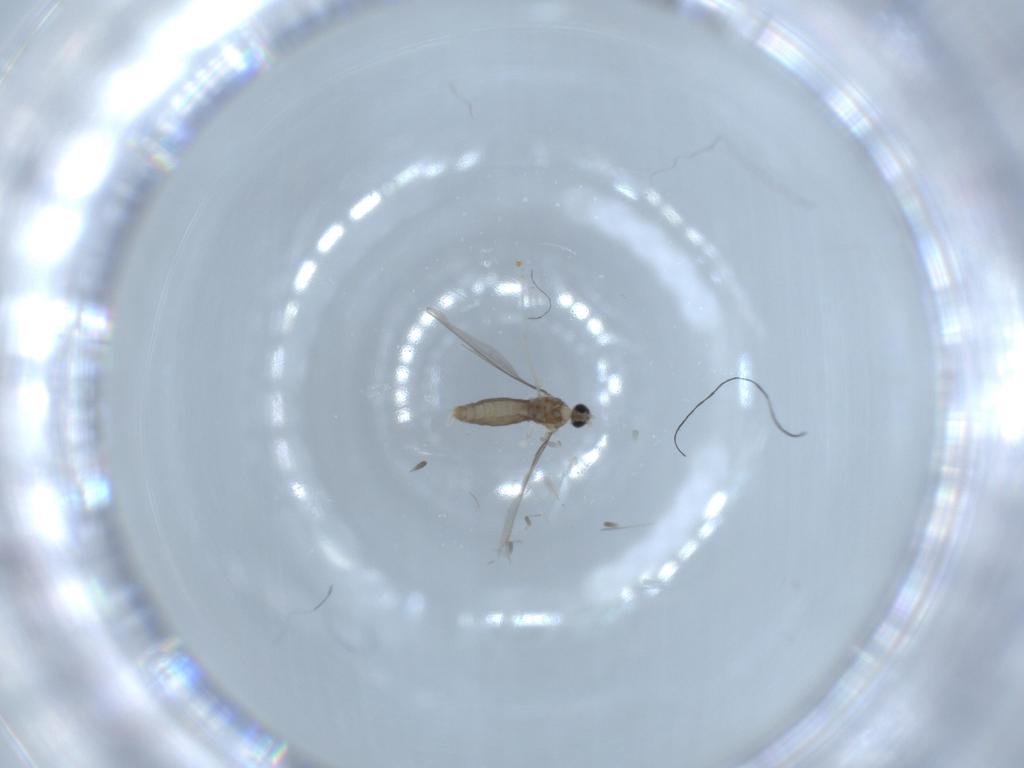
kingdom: Animalia
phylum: Arthropoda
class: Insecta
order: Diptera
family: Cecidomyiidae
